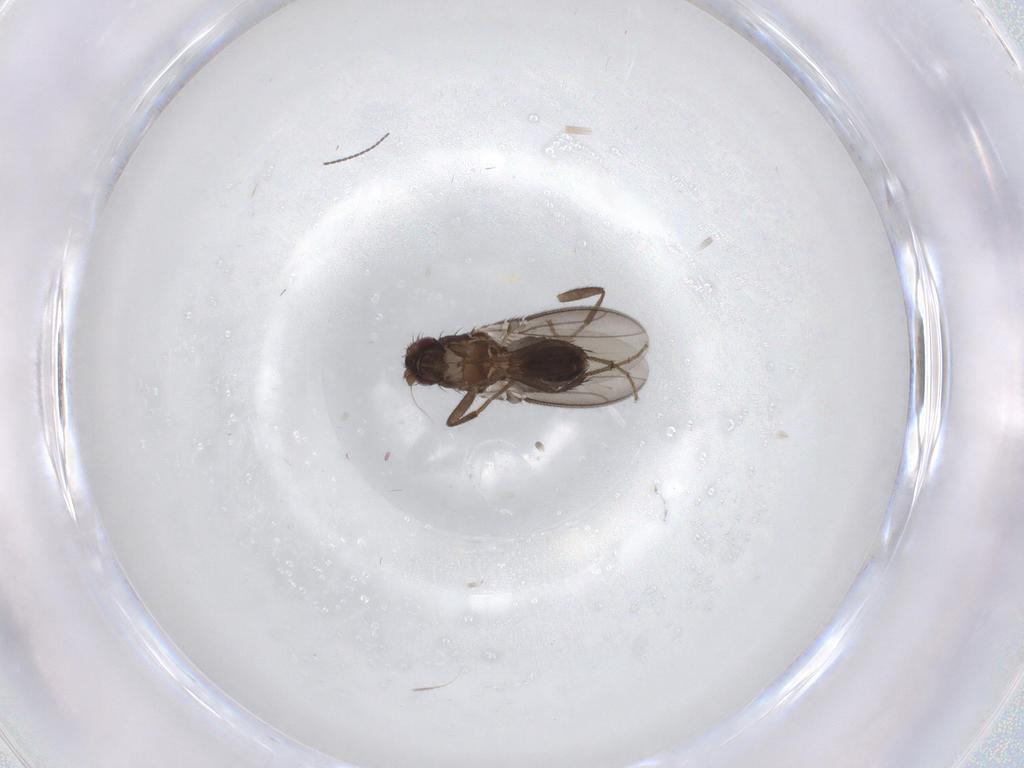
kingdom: Animalia
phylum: Arthropoda
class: Insecta
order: Diptera
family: Sphaeroceridae
